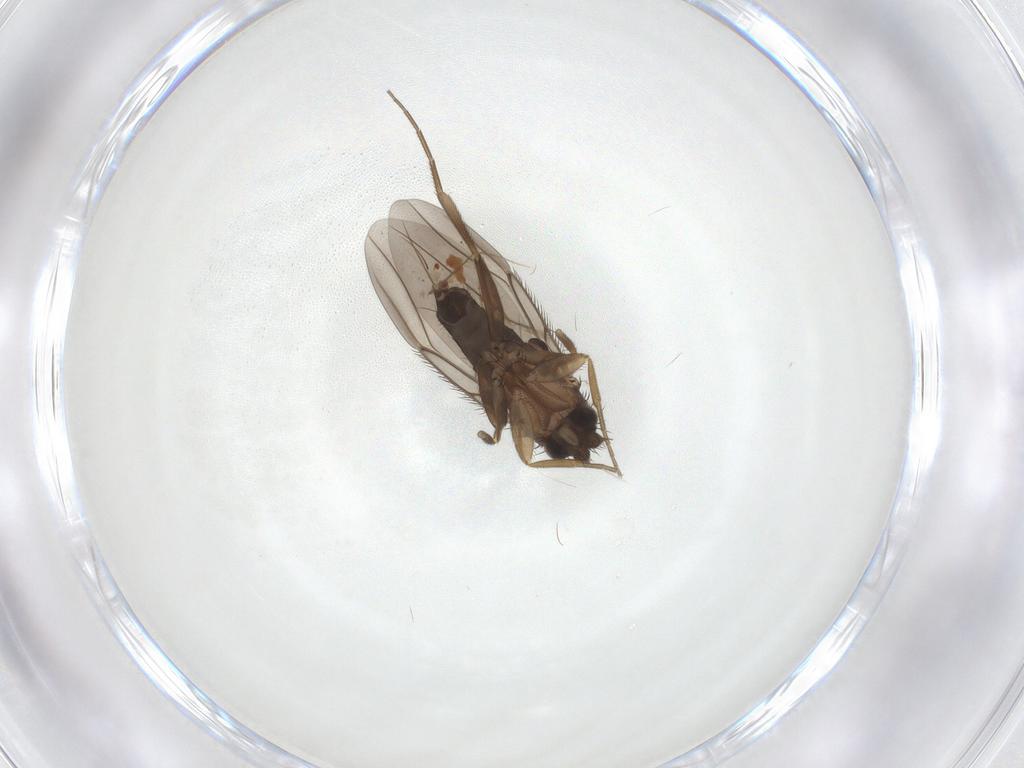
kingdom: Animalia
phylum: Arthropoda
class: Insecta
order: Diptera
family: Phoridae
